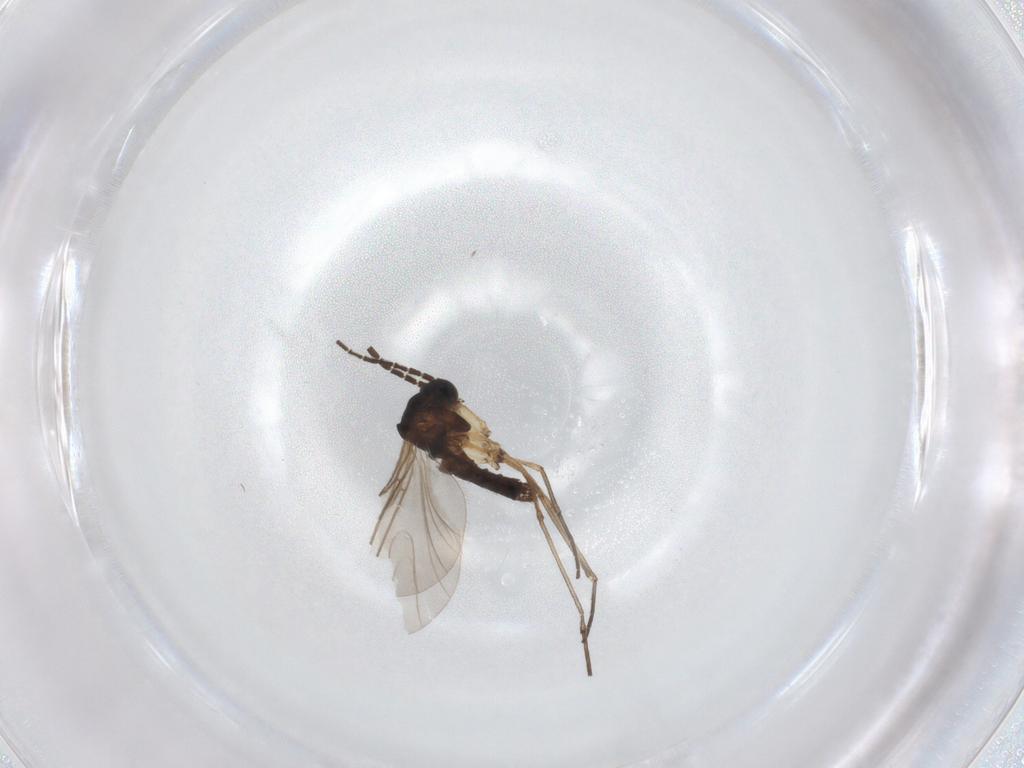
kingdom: Animalia
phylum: Arthropoda
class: Insecta
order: Diptera
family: Sciaridae
